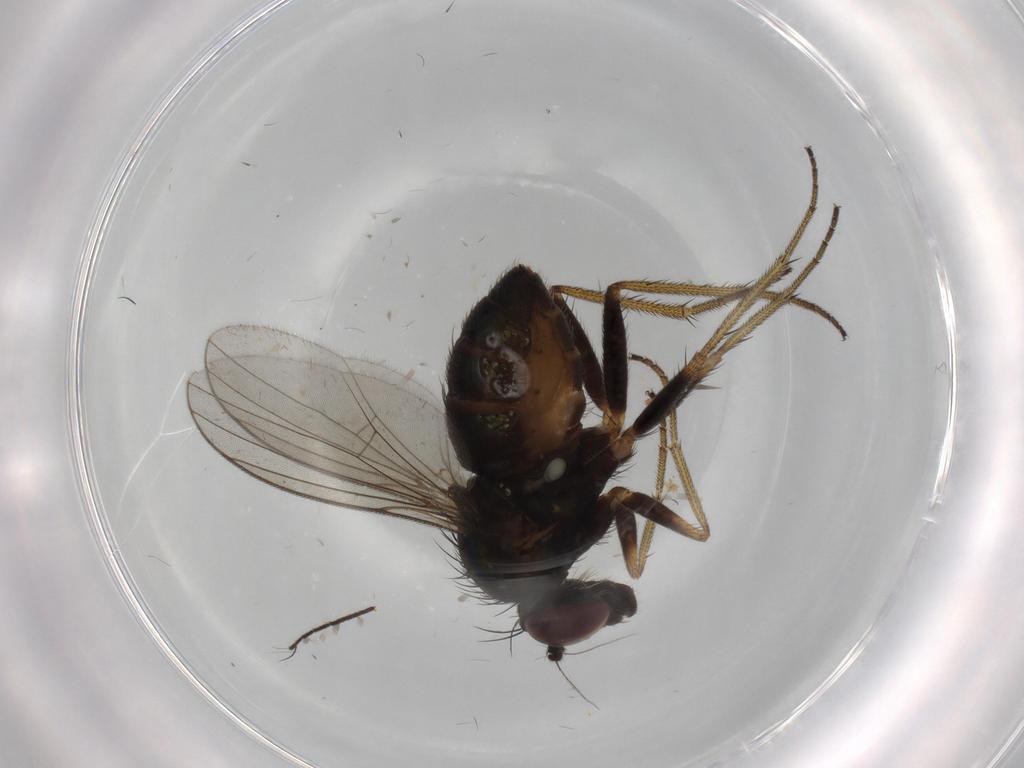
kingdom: Animalia
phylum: Arthropoda
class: Insecta
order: Diptera
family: Sciaridae
